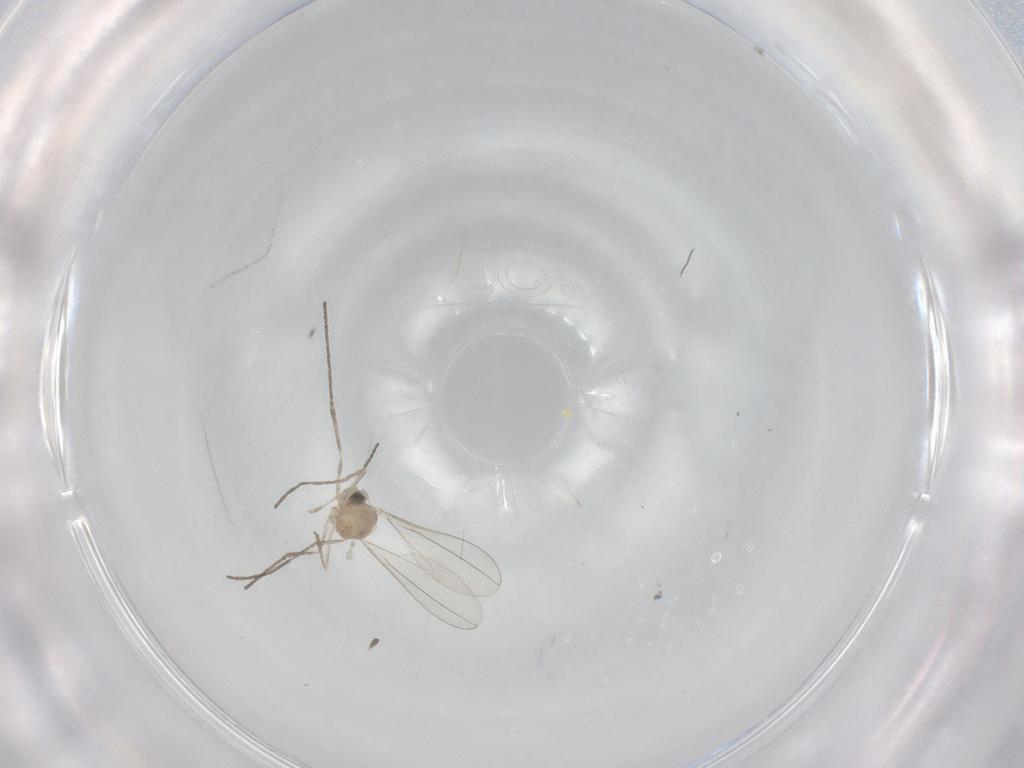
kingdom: Animalia
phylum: Arthropoda
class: Insecta
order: Diptera
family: Cecidomyiidae
